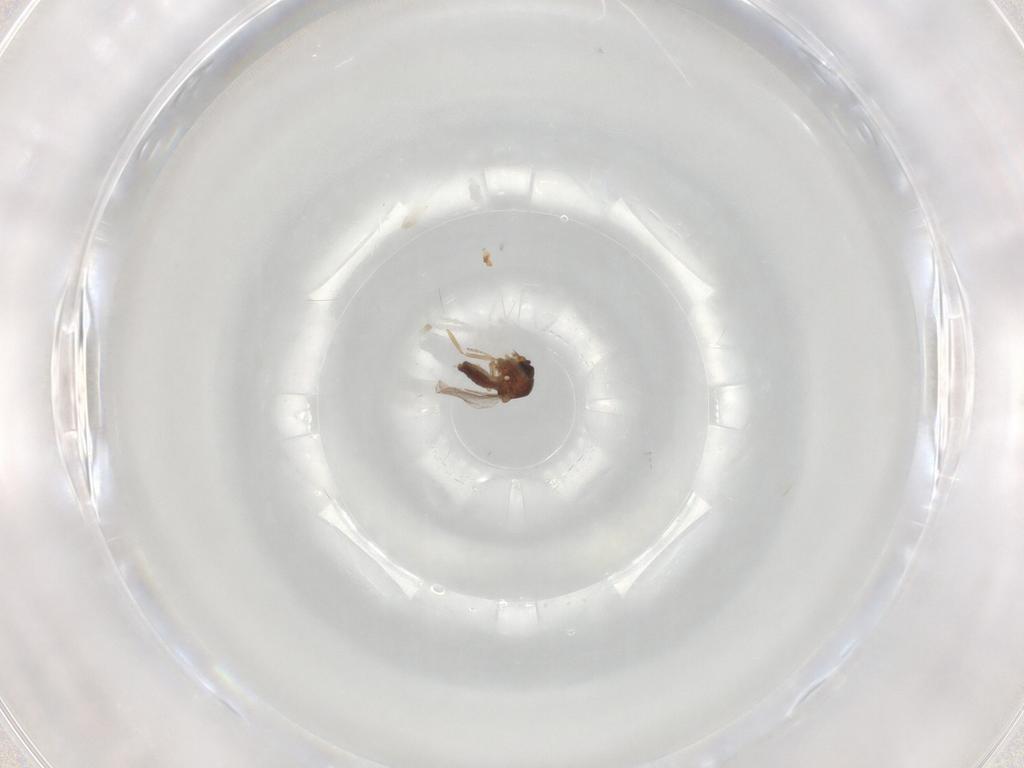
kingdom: Animalia
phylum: Arthropoda
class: Insecta
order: Diptera
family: Ceratopogonidae
